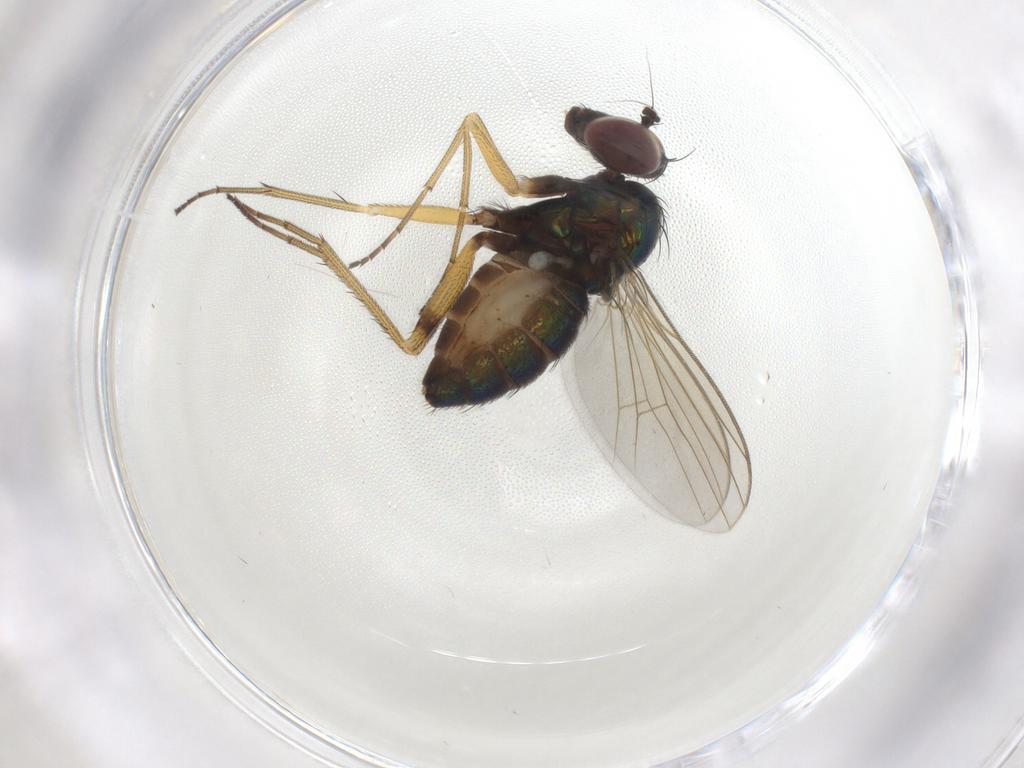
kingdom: Animalia
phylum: Arthropoda
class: Insecta
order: Diptera
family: Dolichopodidae
